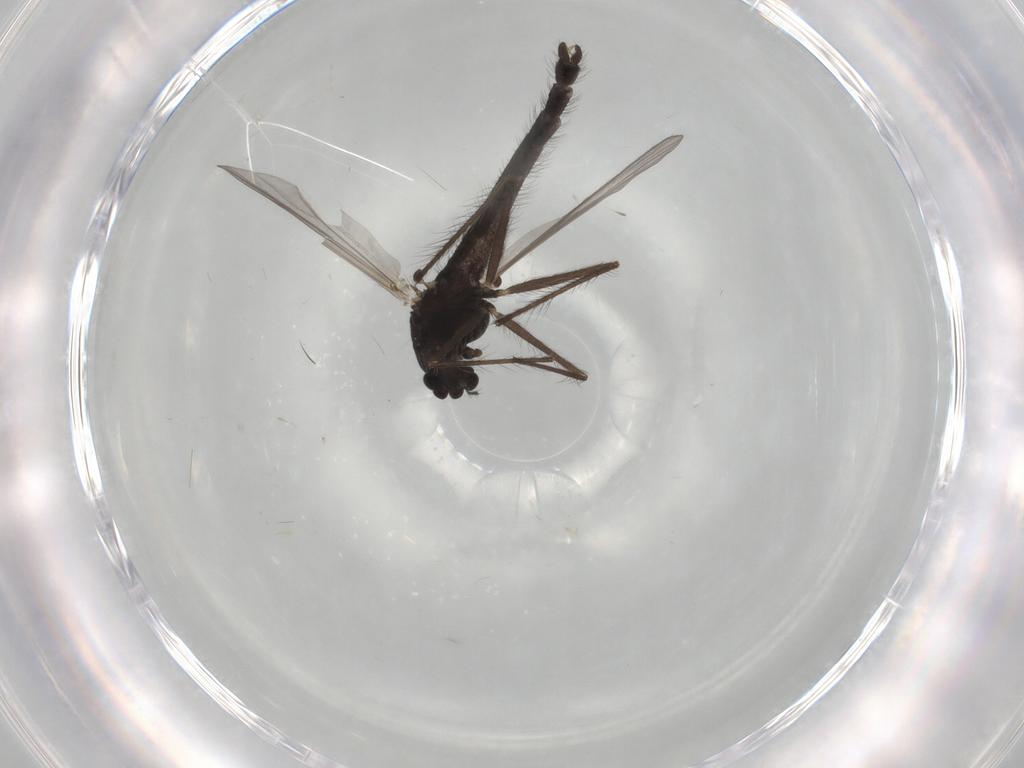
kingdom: Animalia
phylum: Arthropoda
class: Insecta
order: Diptera
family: Chironomidae
